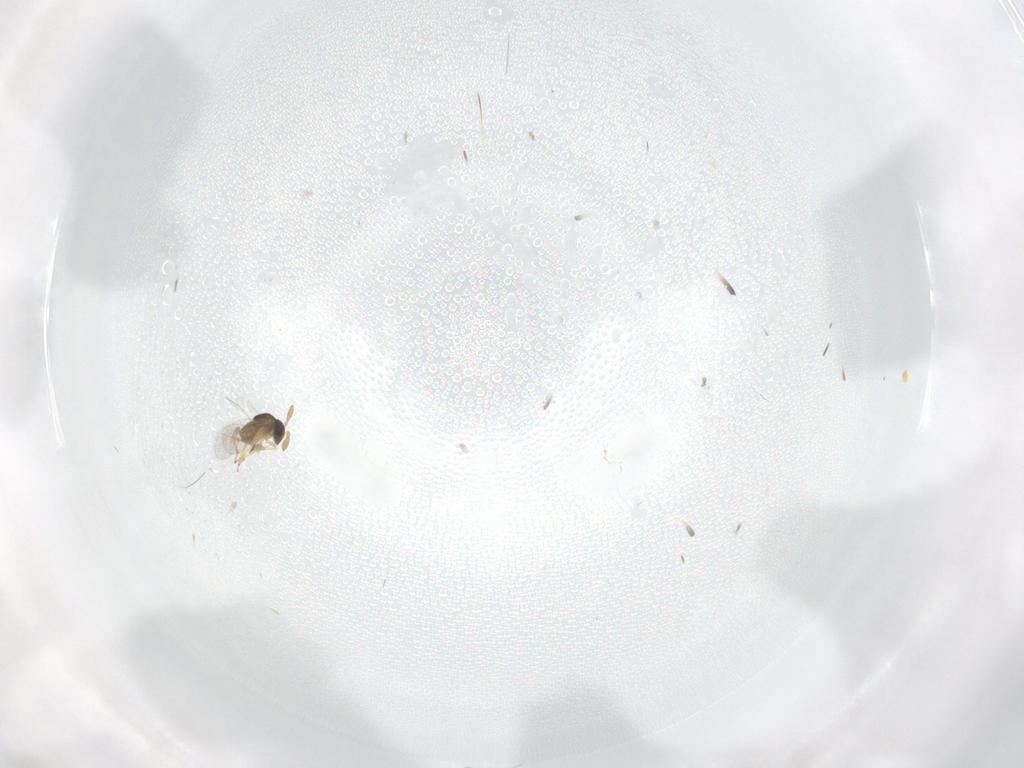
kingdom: Animalia
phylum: Arthropoda
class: Insecta
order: Hymenoptera
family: Encyrtidae
